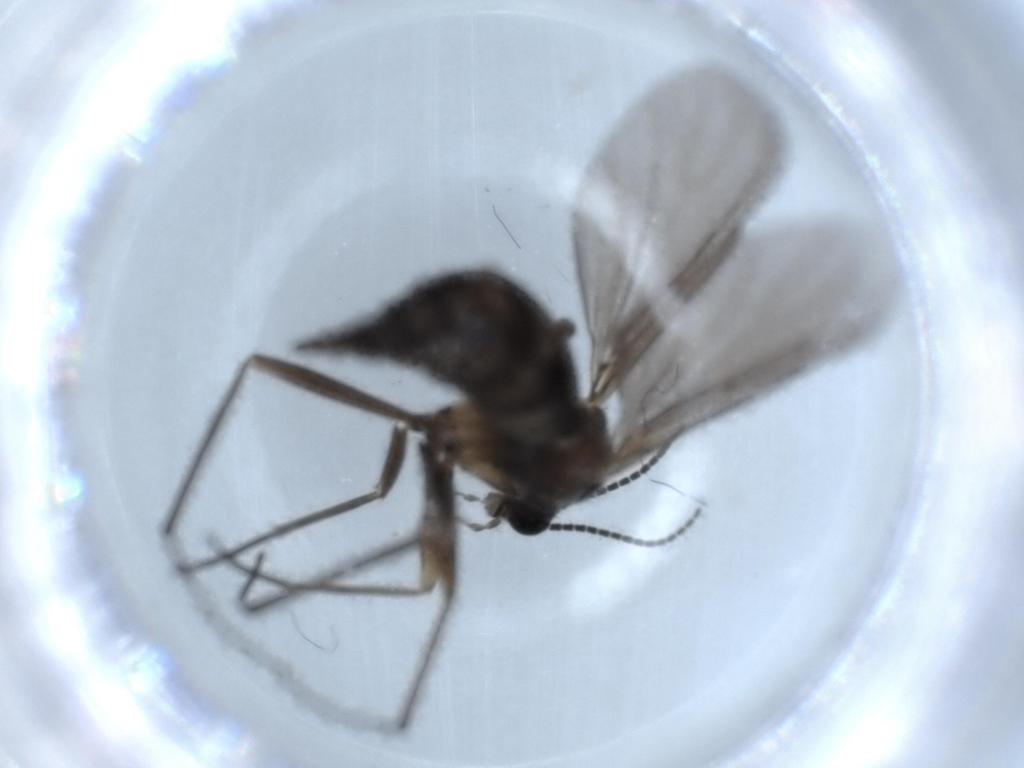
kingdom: Animalia
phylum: Arthropoda
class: Insecta
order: Diptera
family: Sciaridae
